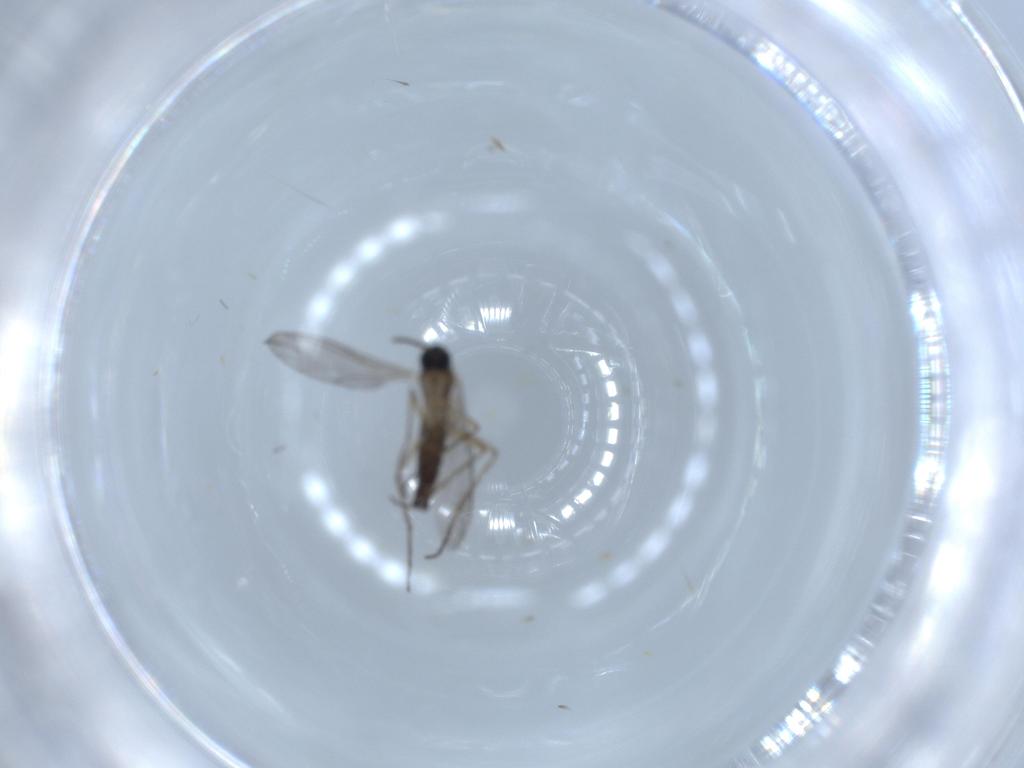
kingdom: Animalia
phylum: Arthropoda
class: Insecta
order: Diptera
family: Sciaridae
